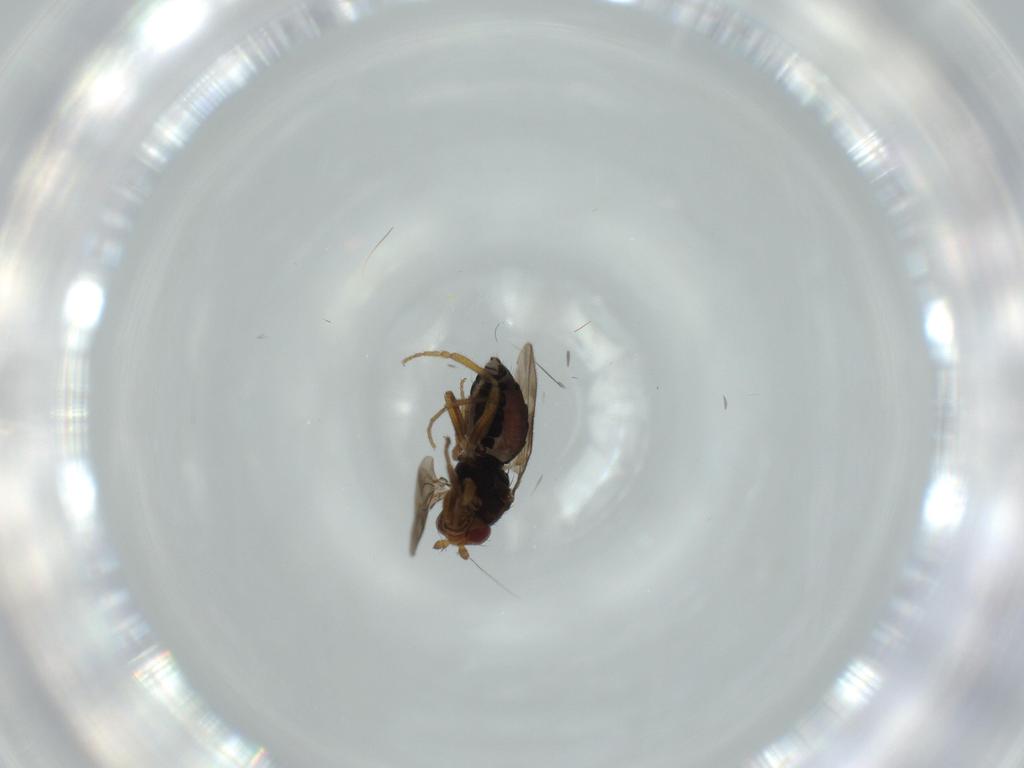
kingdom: Animalia
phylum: Arthropoda
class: Insecta
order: Diptera
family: Sphaeroceridae
